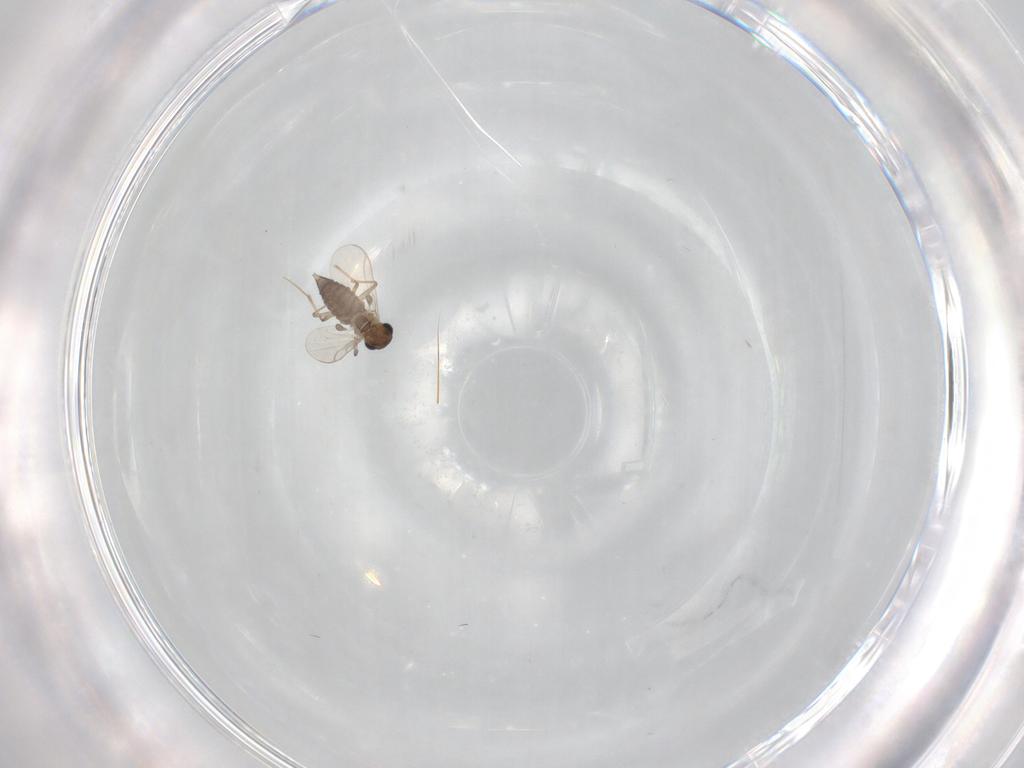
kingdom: Animalia
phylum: Arthropoda
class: Insecta
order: Diptera
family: Chironomidae
